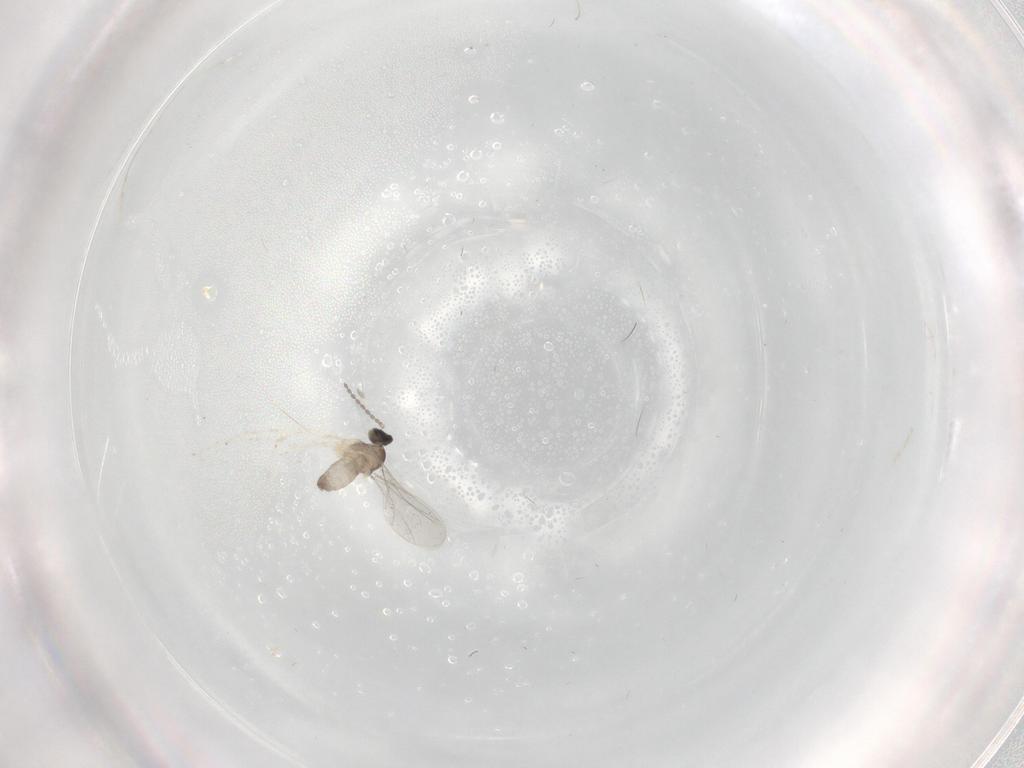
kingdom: Animalia
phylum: Arthropoda
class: Insecta
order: Diptera
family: Cecidomyiidae
